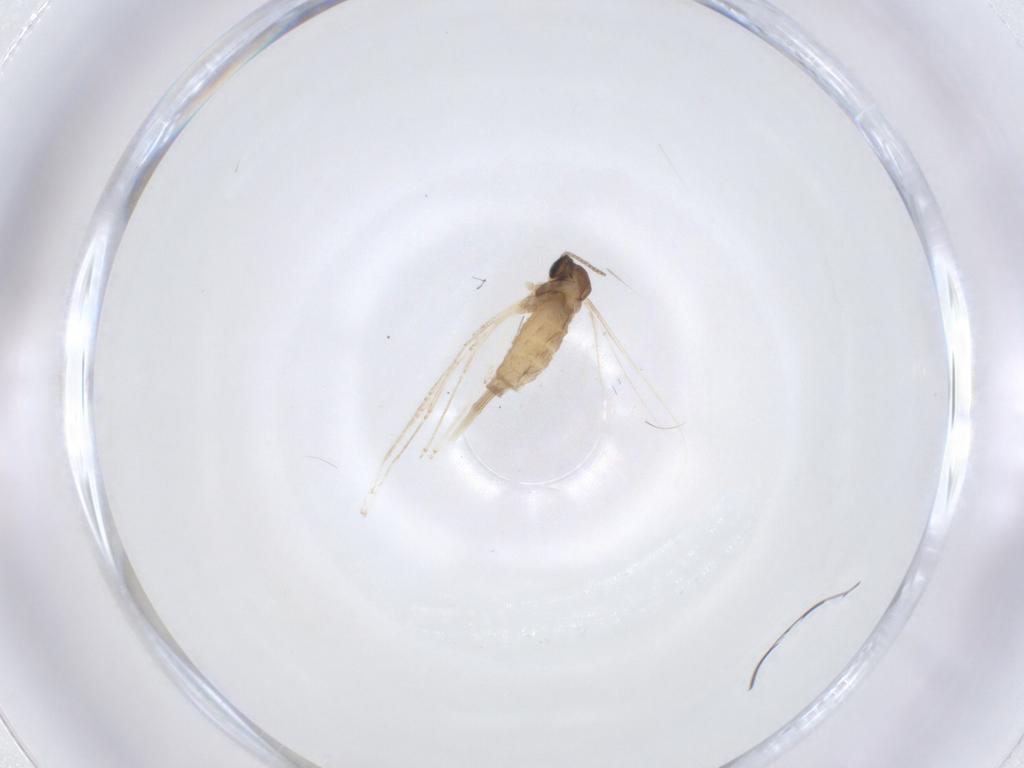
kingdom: Animalia
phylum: Arthropoda
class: Insecta
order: Diptera
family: Cecidomyiidae
